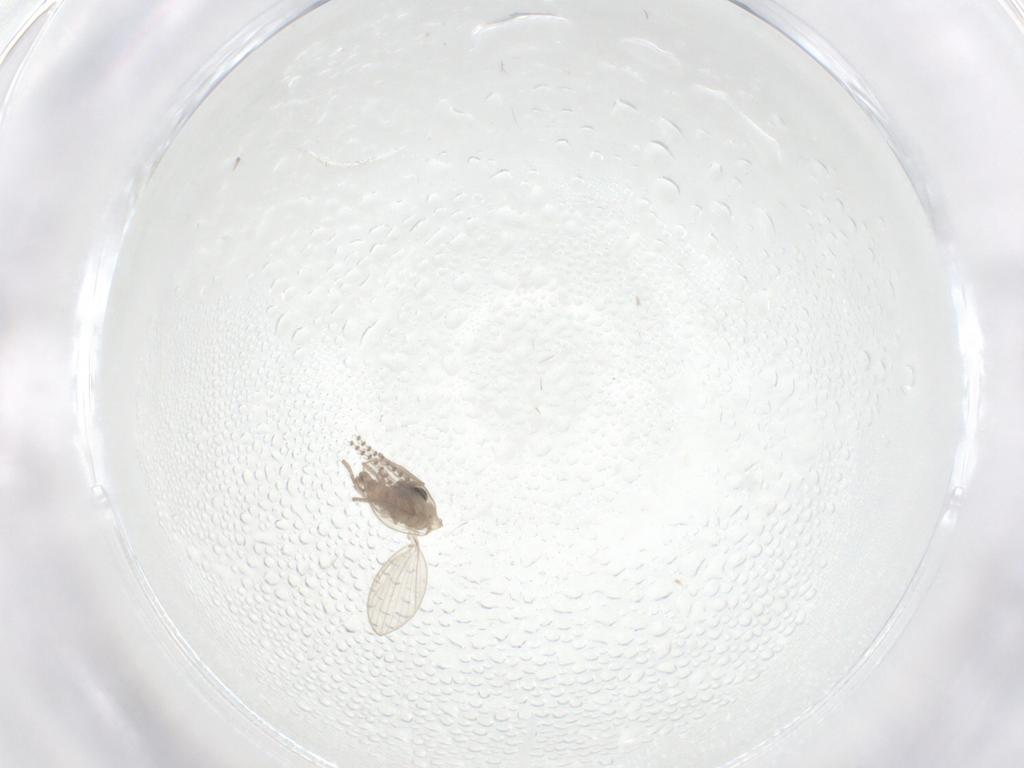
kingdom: Animalia
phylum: Arthropoda
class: Insecta
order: Diptera
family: Psychodidae
